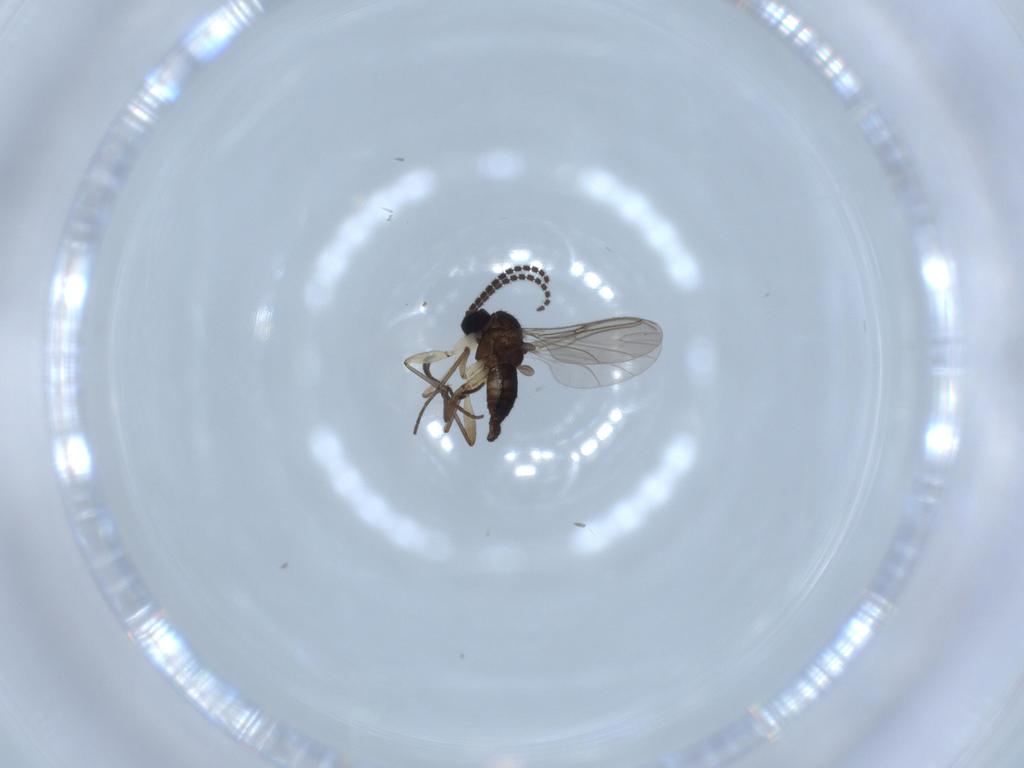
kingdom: Animalia
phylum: Arthropoda
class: Insecta
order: Diptera
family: Sciaridae
